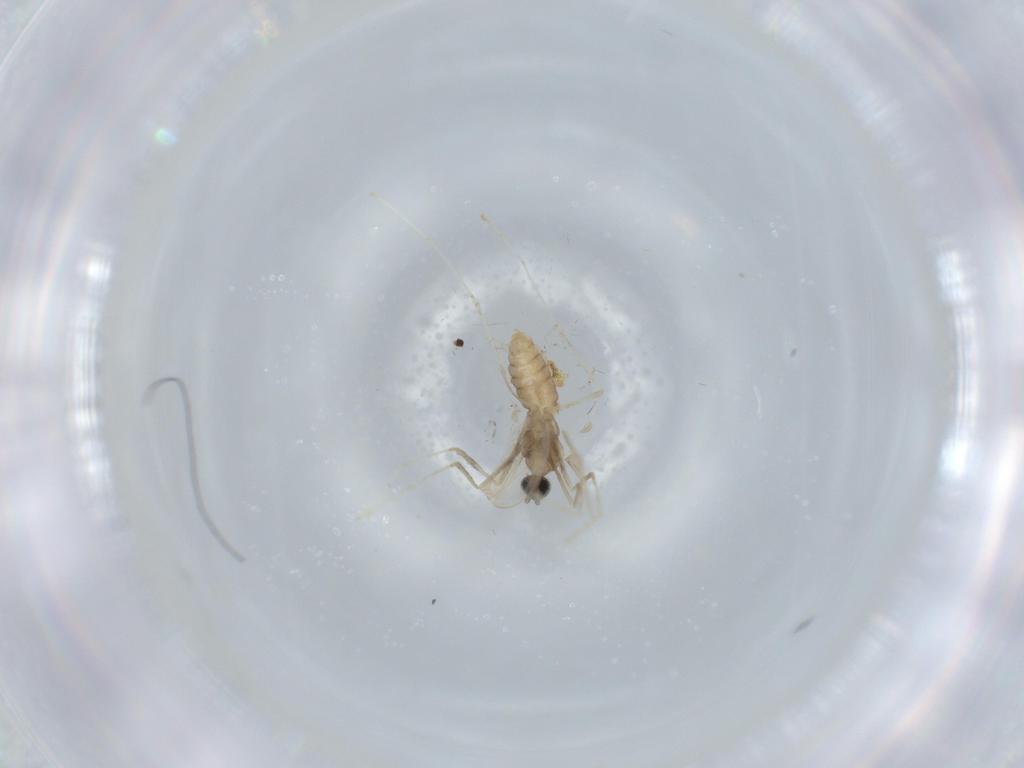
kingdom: Animalia
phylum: Arthropoda
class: Insecta
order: Diptera
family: Cecidomyiidae
